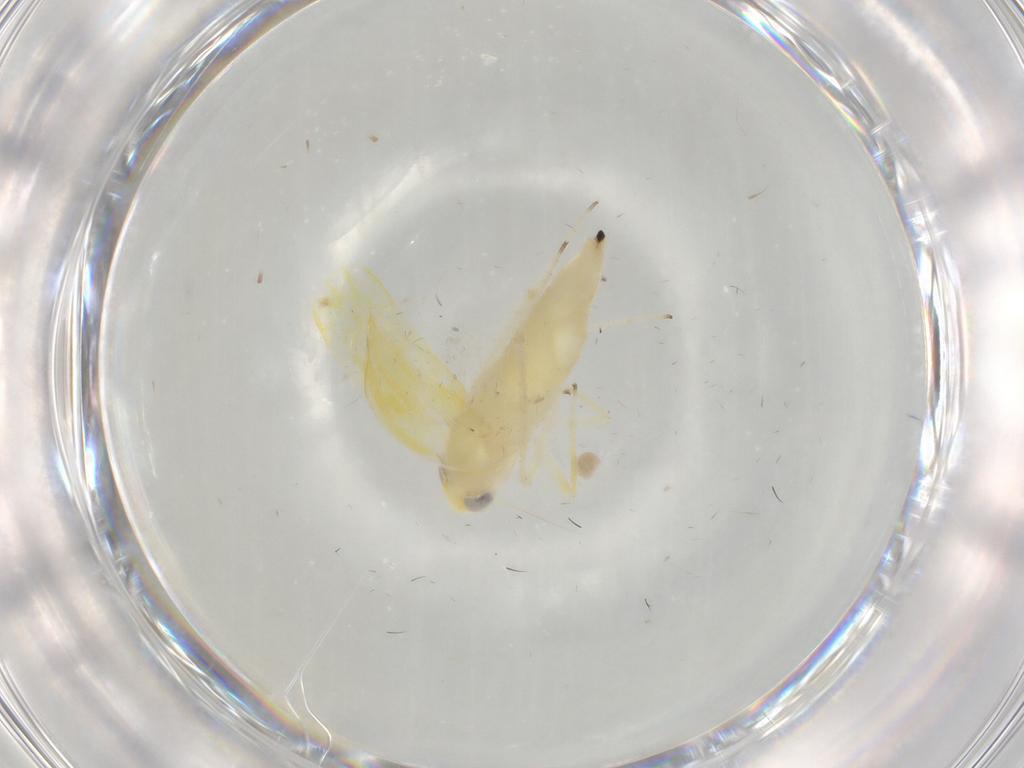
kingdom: Animalia
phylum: Arthropoda
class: Insecta
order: Hemiptera
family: Cicadellidae
